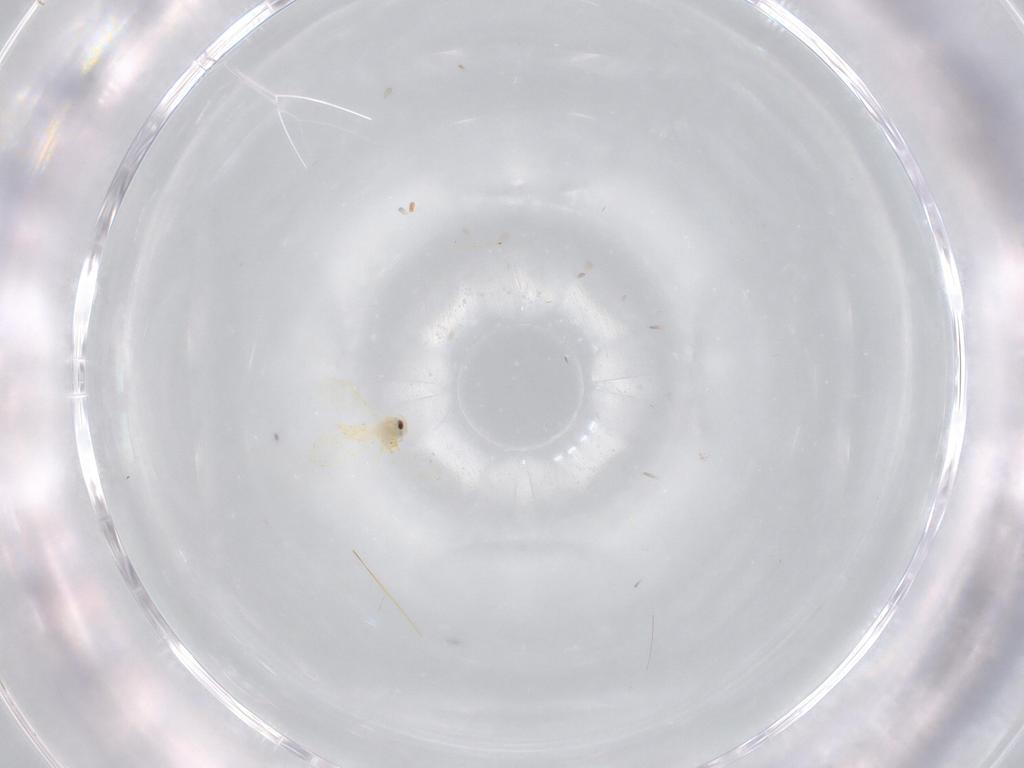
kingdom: Animalia
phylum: Arthropoda
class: Insecta
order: Hemiptera
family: Aleyrodidae
